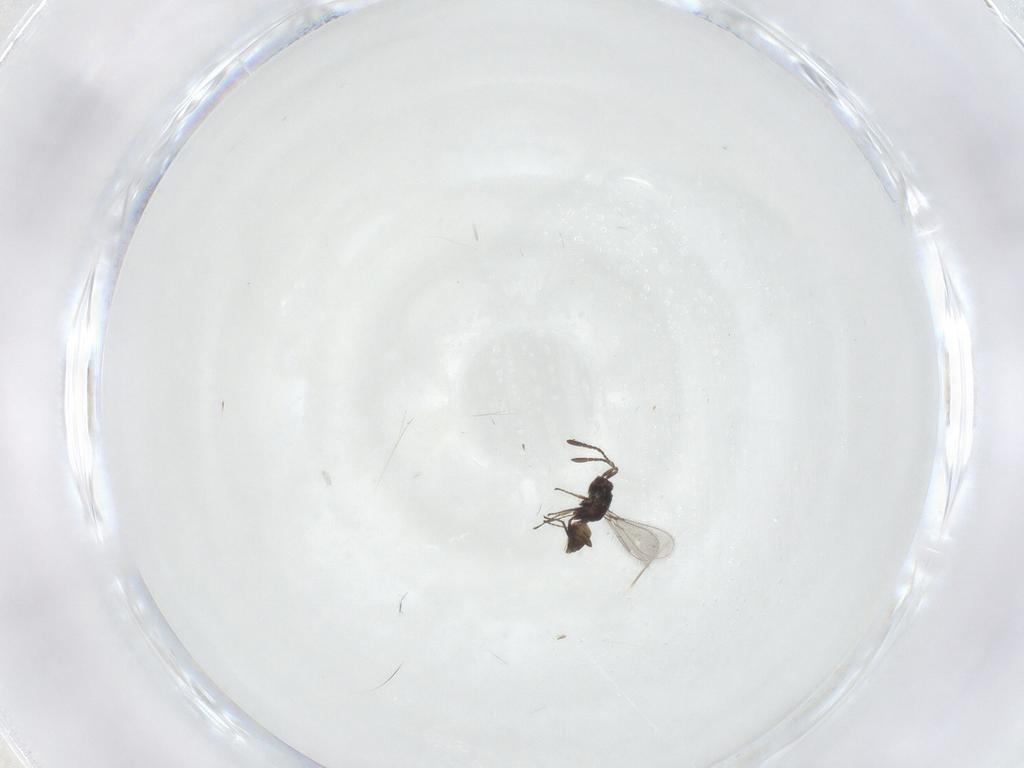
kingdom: Animalia
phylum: Arthropoda
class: Insecta
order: Hymenoptera
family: Mymaridae
